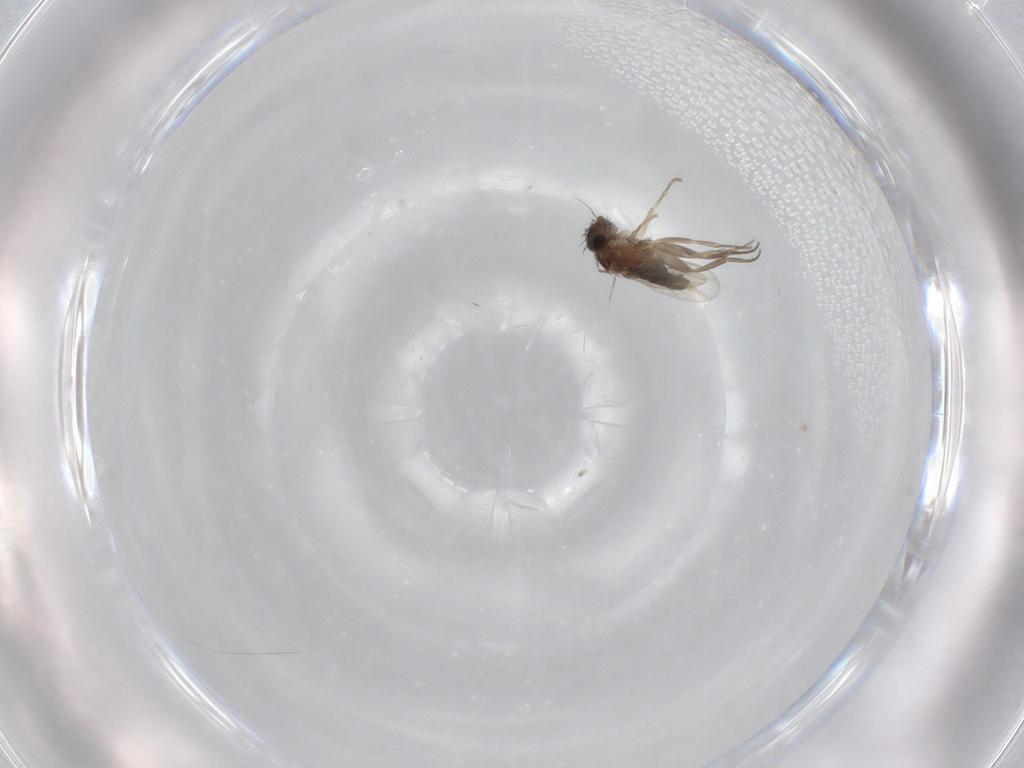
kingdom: Animalia
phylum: Arthropoda
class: Insecta
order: Diptera
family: Phoridae
